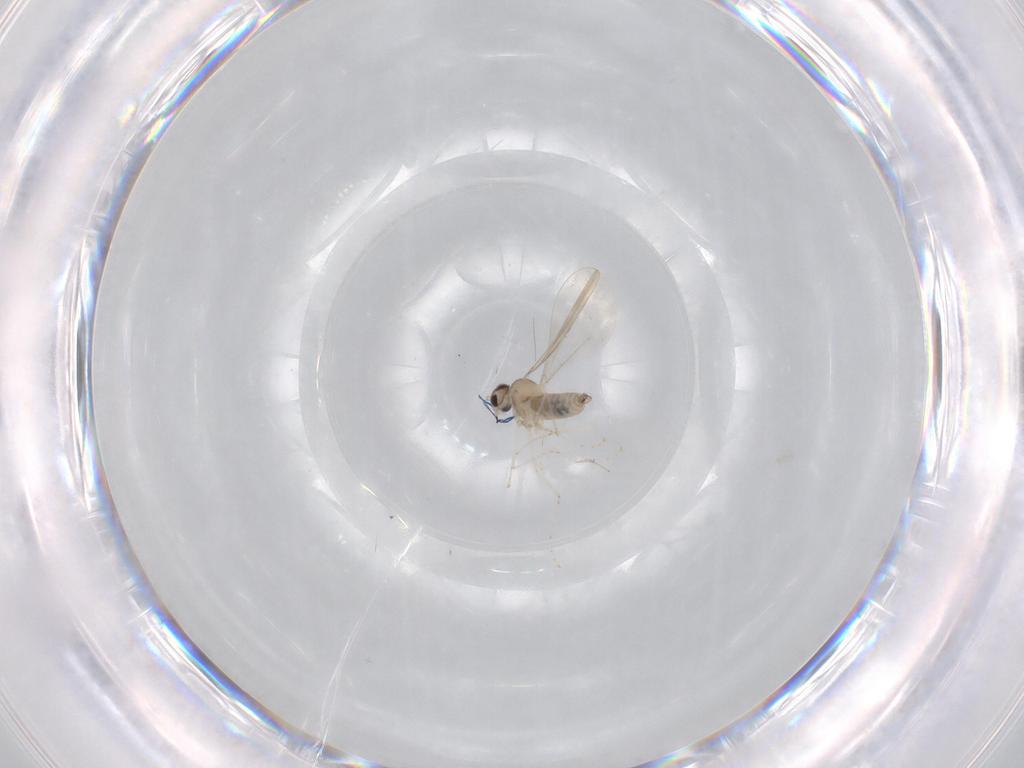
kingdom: Animalia
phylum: Arthropoda
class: Insecta
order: Diptera
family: Cecidomyiidae
